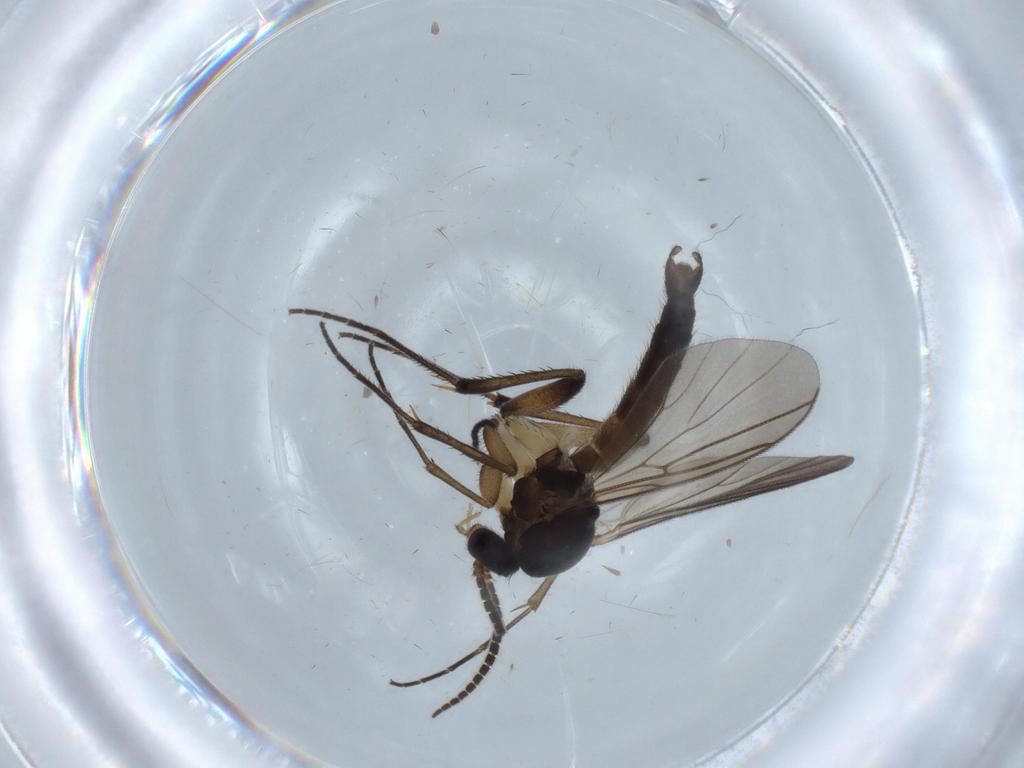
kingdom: Animalia
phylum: Arthropoda
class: Insecta
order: Diptera
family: Mycetophilidae
